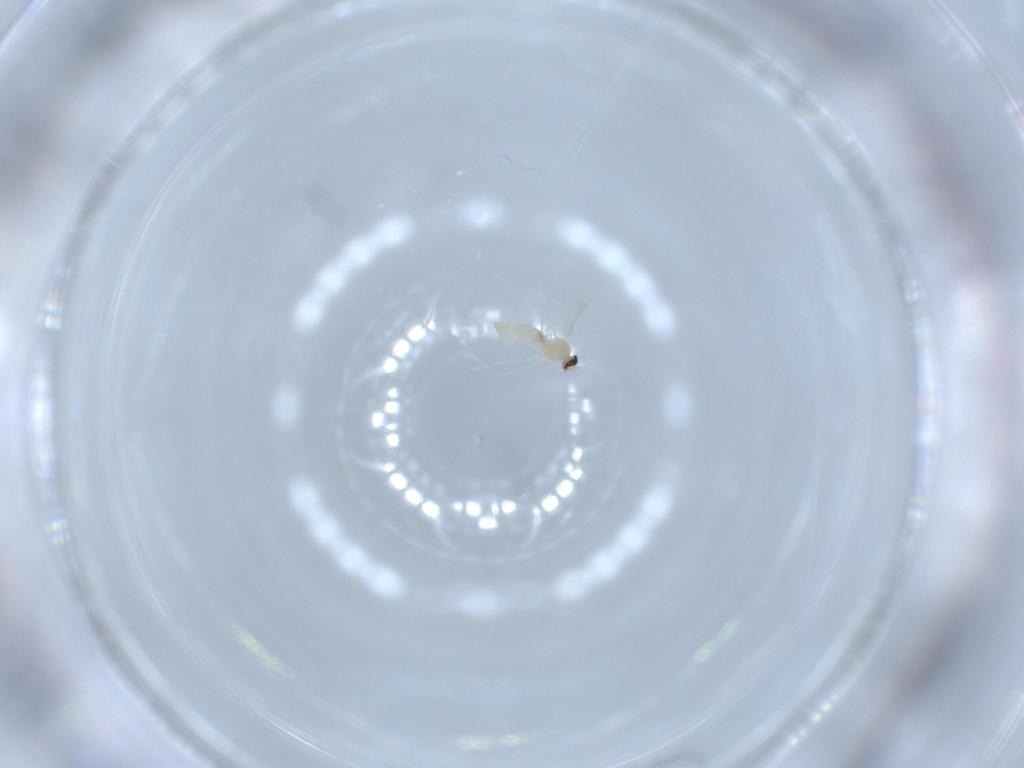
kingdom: Animalia
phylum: Arthropoda
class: Insecta
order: Diptera
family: Cecidomyiidae
